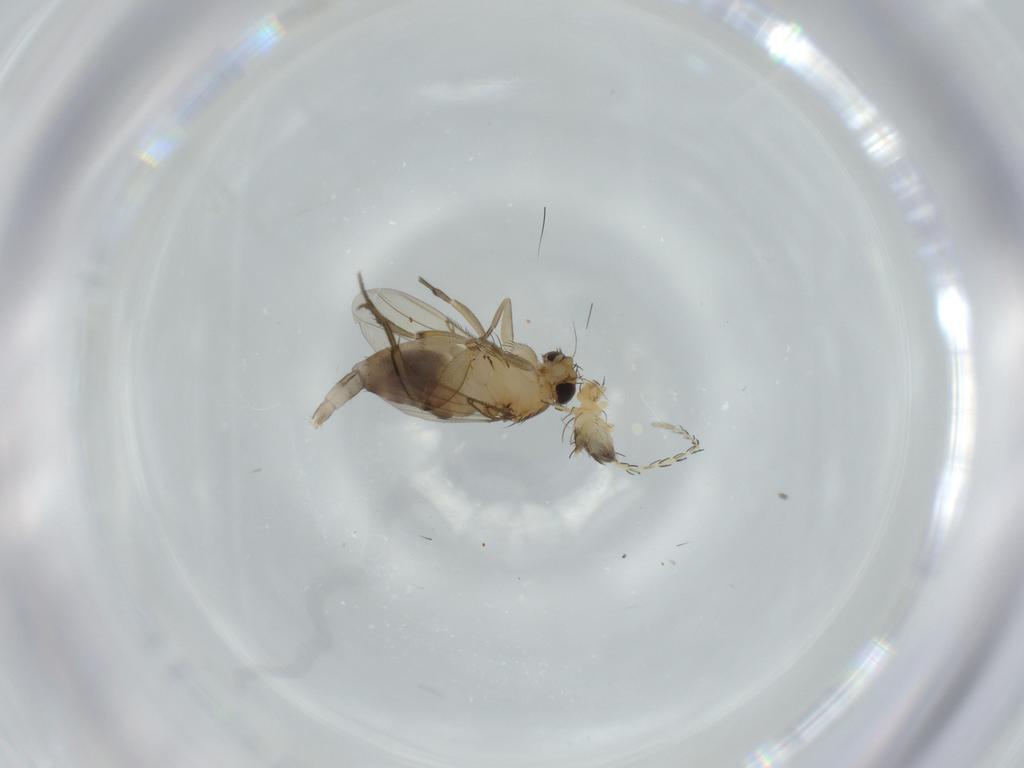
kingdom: Animalia
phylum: Arthropoda
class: Arachnida
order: Trombidiformes
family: Erythraeidae
